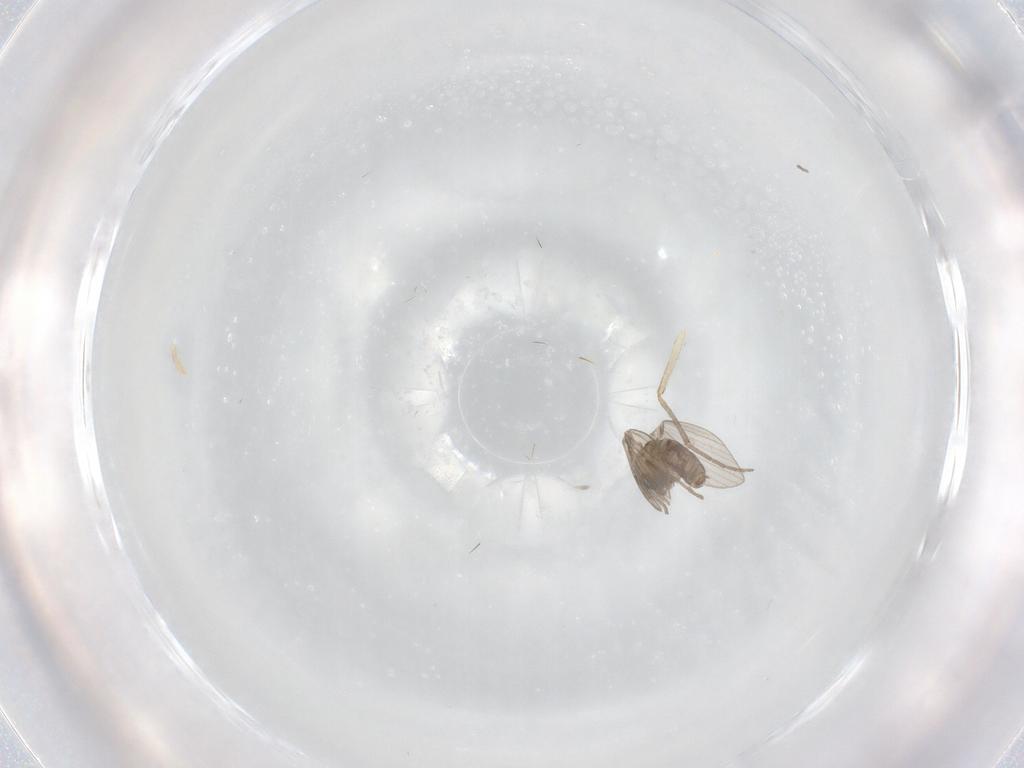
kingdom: Animalia
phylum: Arthropoda
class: Insecta
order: Diptera
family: Psychodidae
